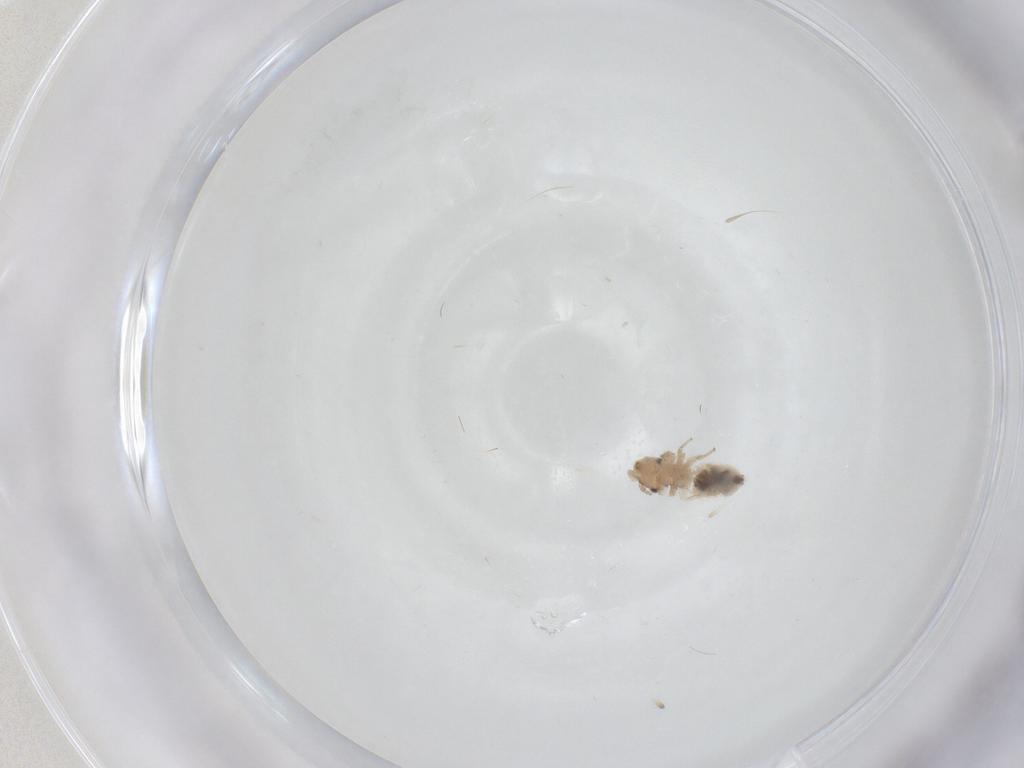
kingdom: Animalia
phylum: Arthropoda
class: Insecta
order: Psocodea
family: Lepidopsocidae
